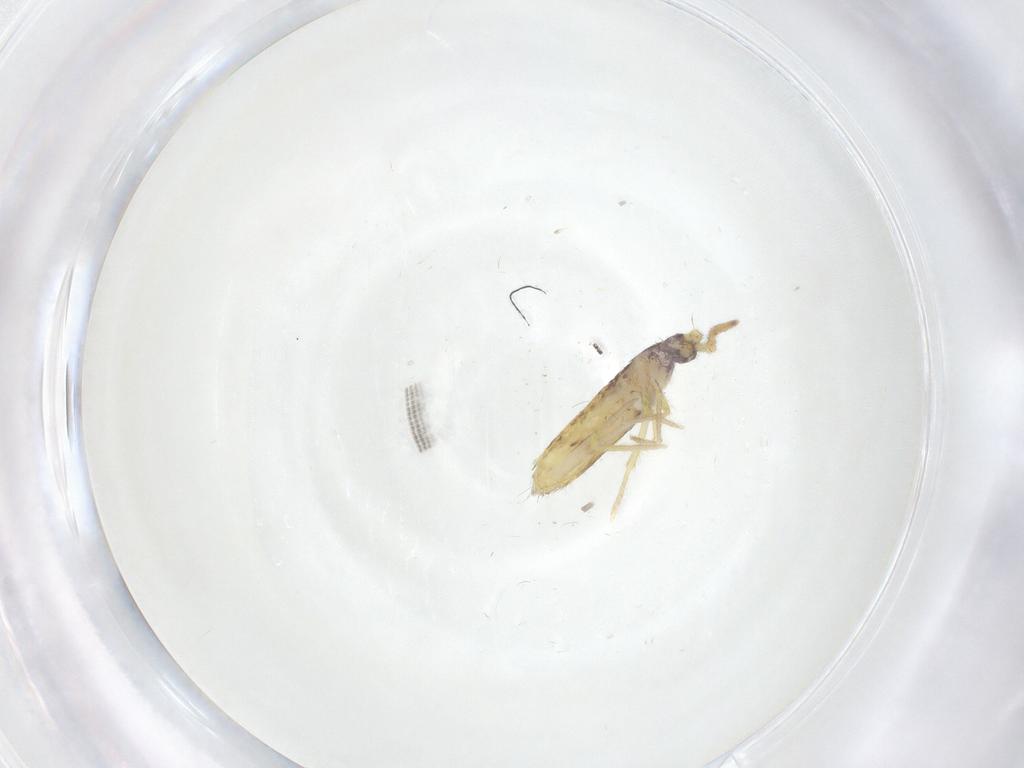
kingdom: Animalia
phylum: Arthropoda
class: Collembola
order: Entomobryomorpha
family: Entomobryidae
